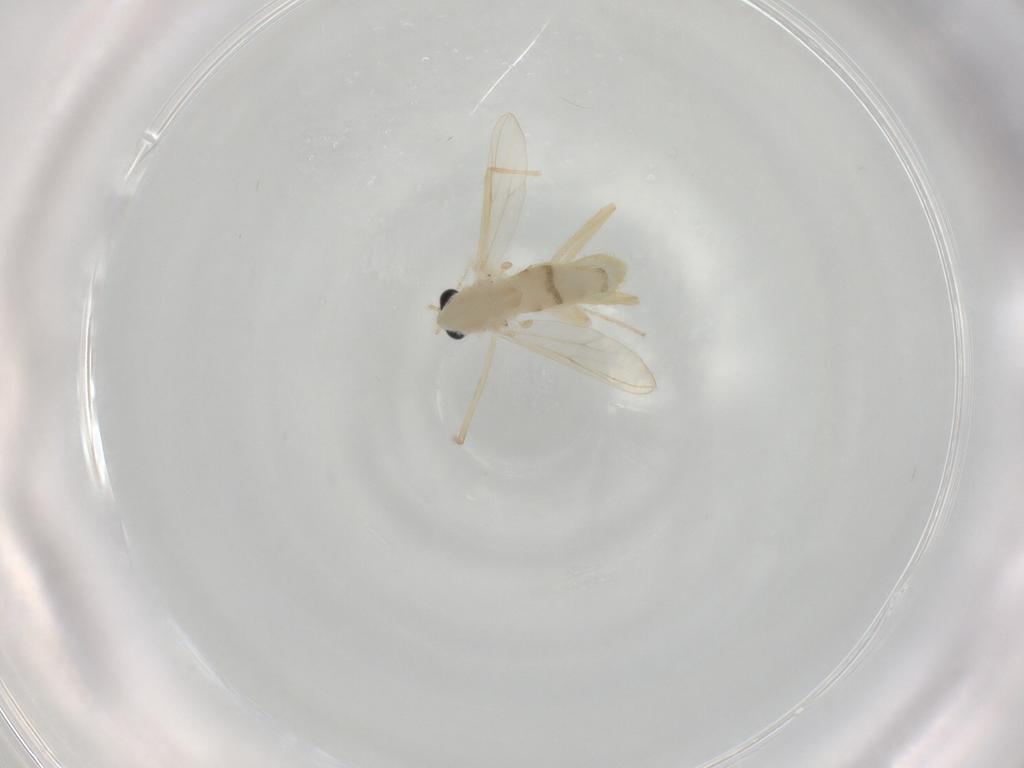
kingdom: Animalia
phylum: Arthropoda
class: Insecta
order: Diptera
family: Chironomidae
